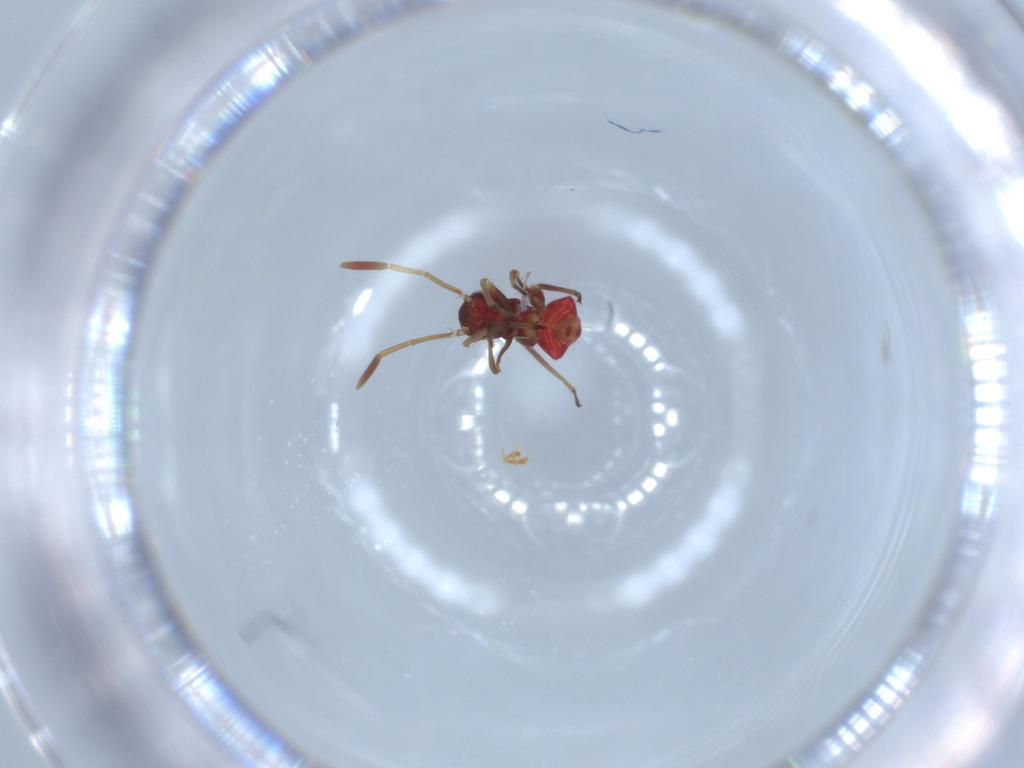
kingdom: Animalia
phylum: Arthropoda
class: Insecta
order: Hemiptera
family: Miridae
